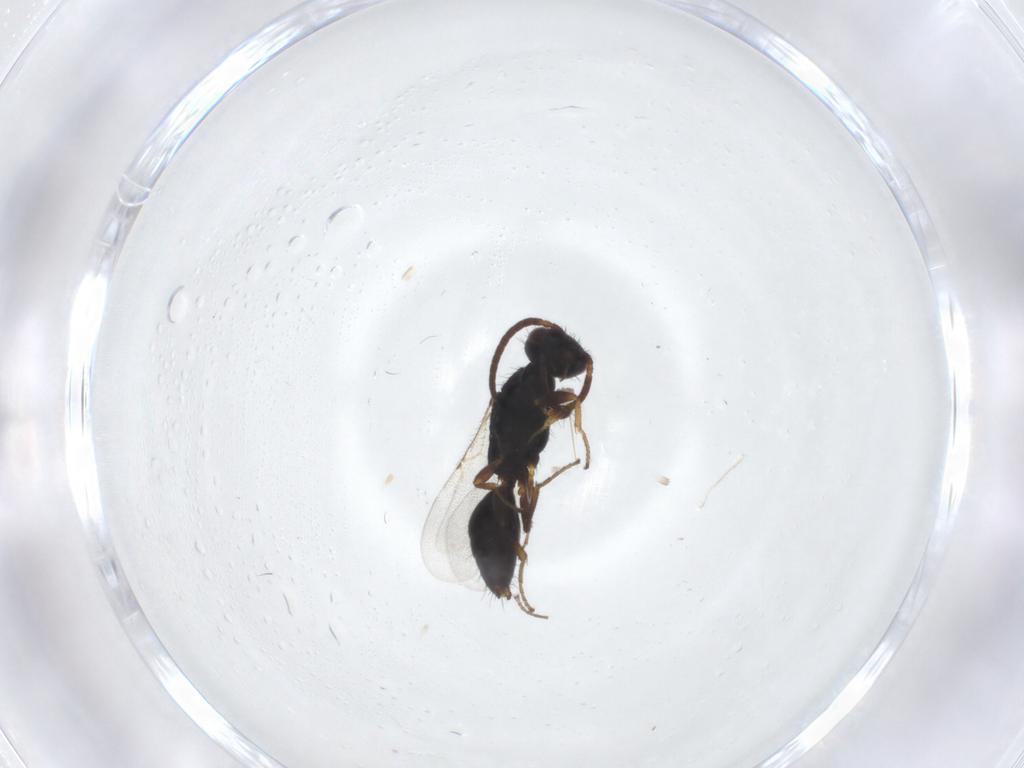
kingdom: Animalia
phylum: Arthropoda
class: Insecta
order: Hymenoptera
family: Bethylidae
